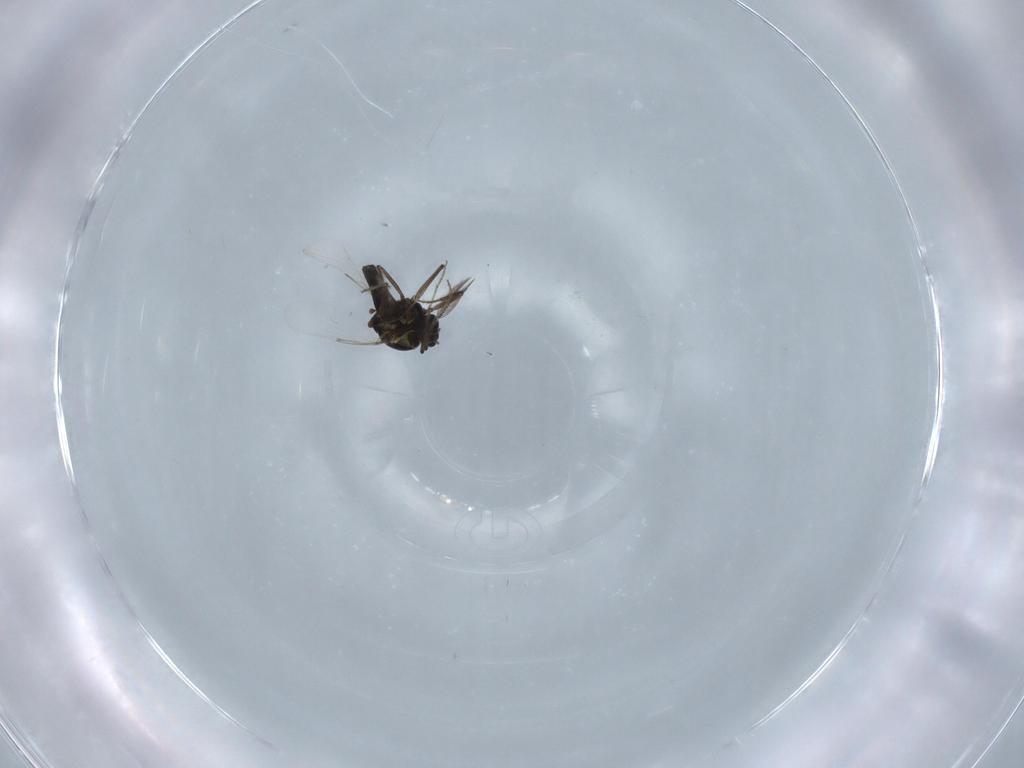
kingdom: Animalia
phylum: Arthropoda
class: Insecta
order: Diptera
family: Ceratopogonidae
